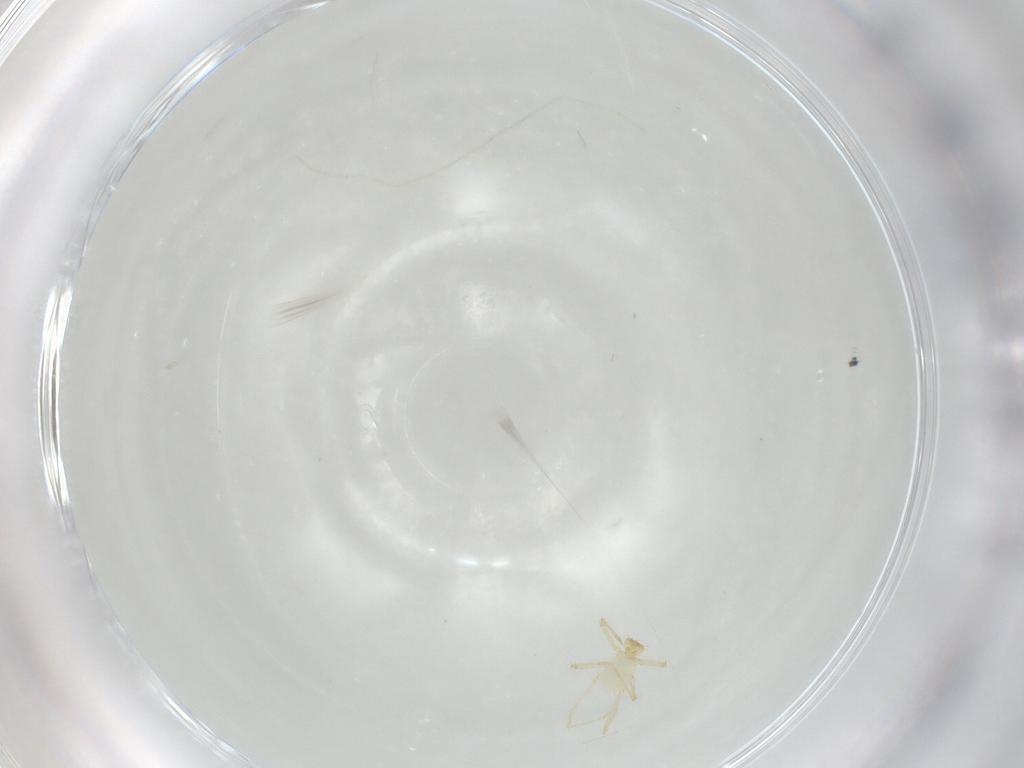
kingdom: Animalia
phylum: Arthropoda
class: Arachnida
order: Trombidiformes
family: Erythraeidae
